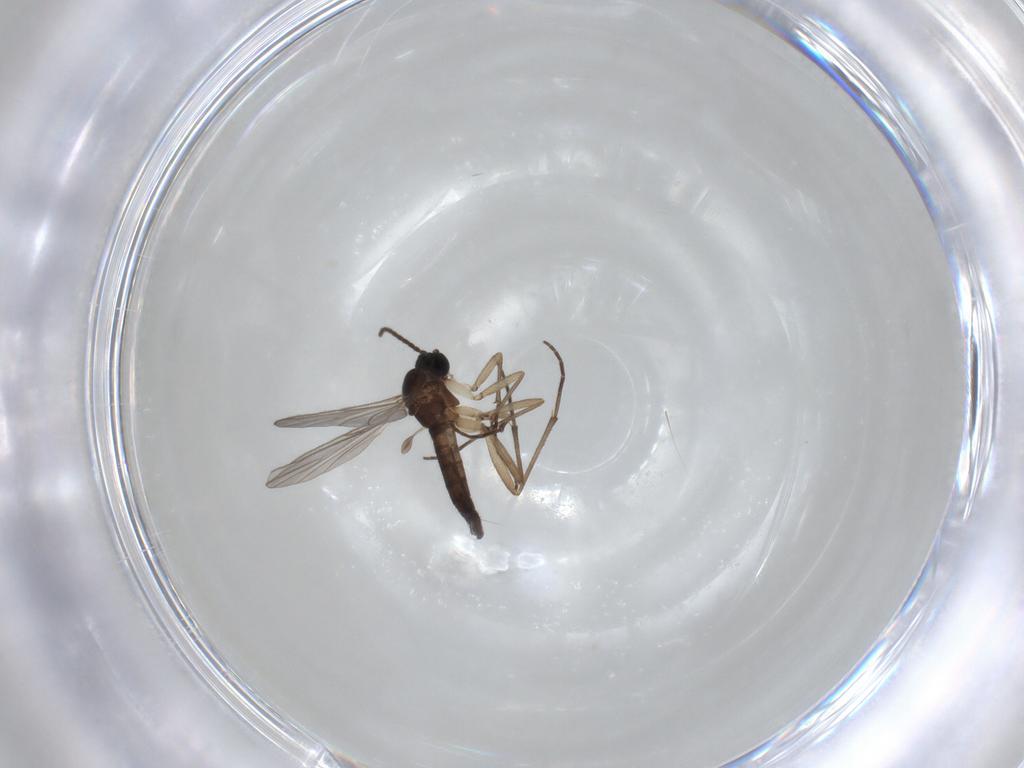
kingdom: Animalia
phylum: Arthropoda
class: Insecta
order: Diptera
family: Sciaridae
